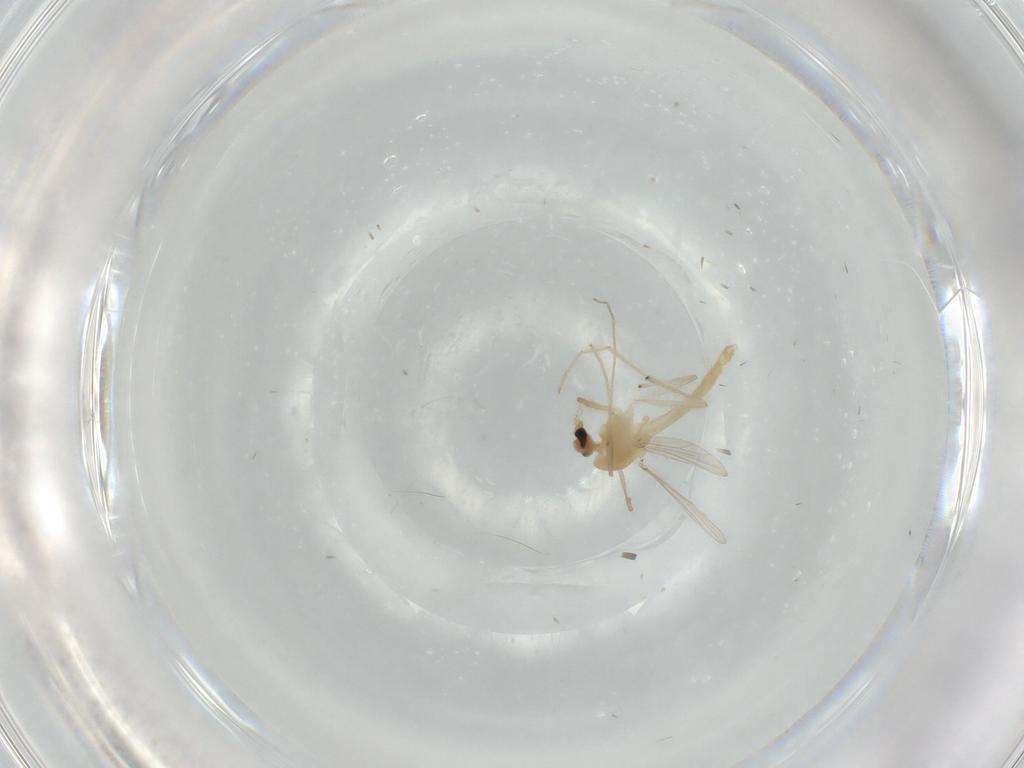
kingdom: Animalia
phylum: Arthropoda
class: Insecta
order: Diptera
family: Chironomidae
